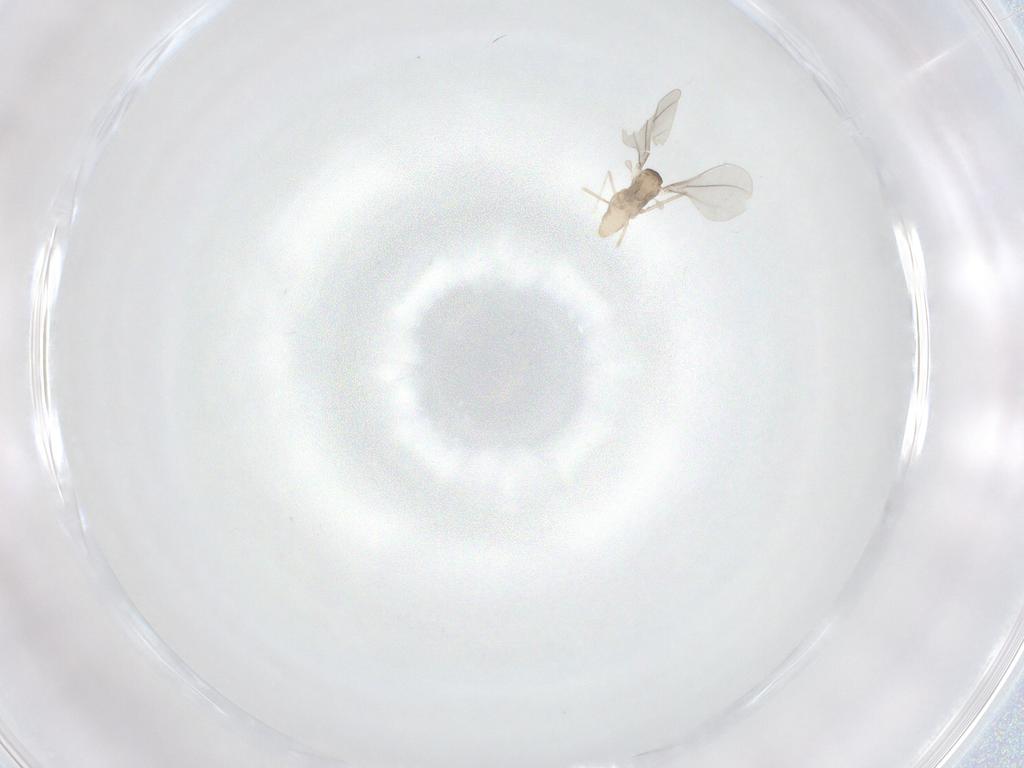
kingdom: Animalia
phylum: Arthropoda
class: Insecta
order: Diptera
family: Cecidomyiidae
